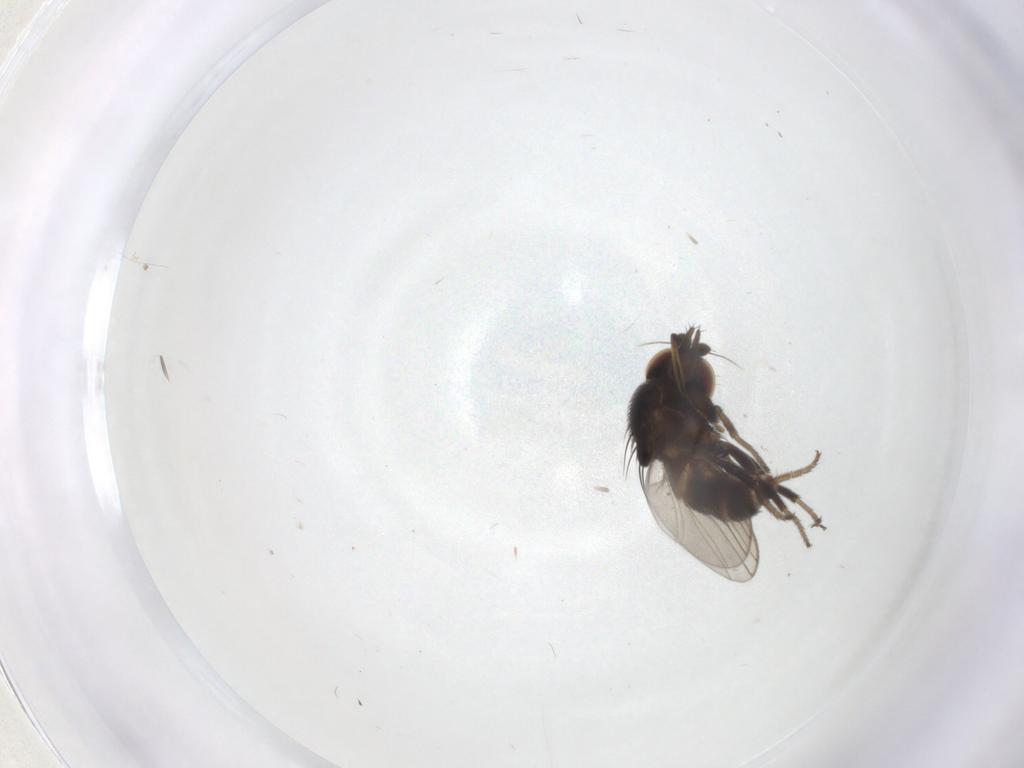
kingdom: Animalia
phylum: Arthropoda
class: Insecta
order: Diptera
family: Milichiidae
